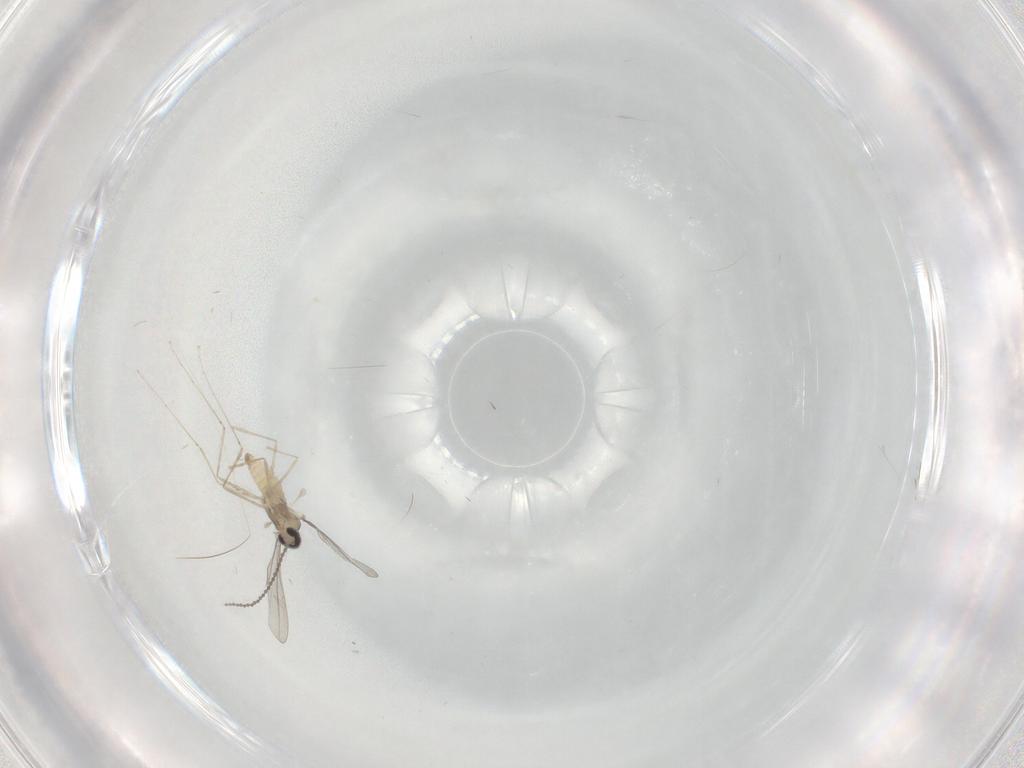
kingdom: Animalia
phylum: Arthropoda
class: Insecta
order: Diptera
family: Cecidomyiidae
